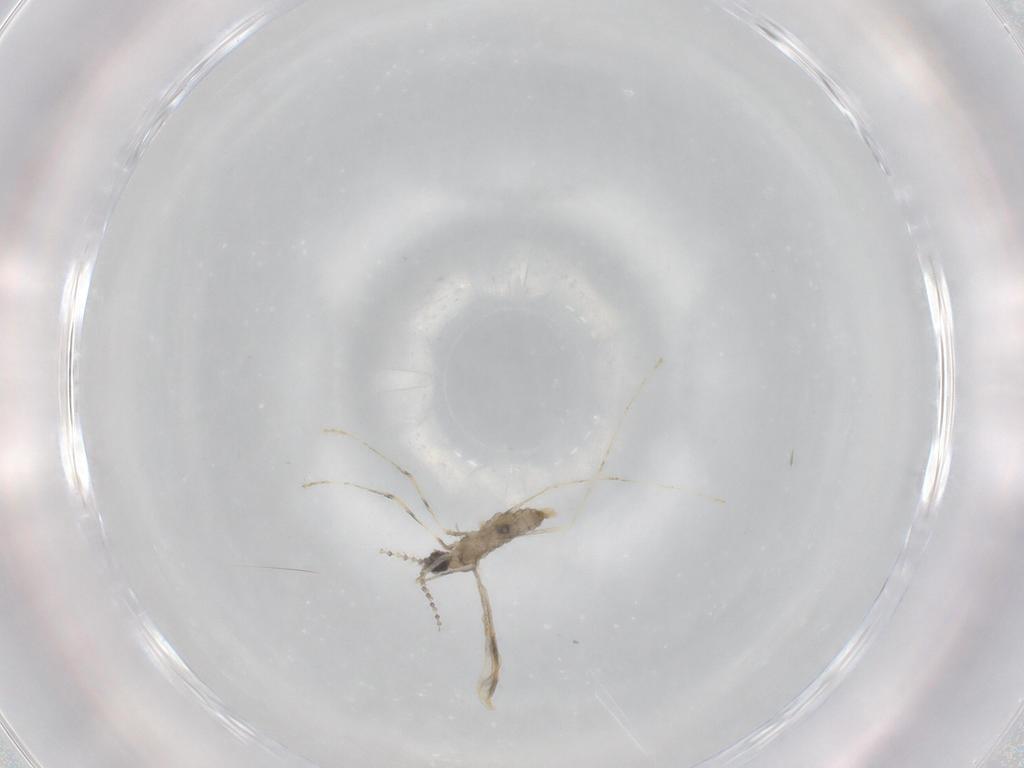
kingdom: Animalia
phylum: Arthropoda
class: Insecta
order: Diptera
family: Cecidomyiidae
